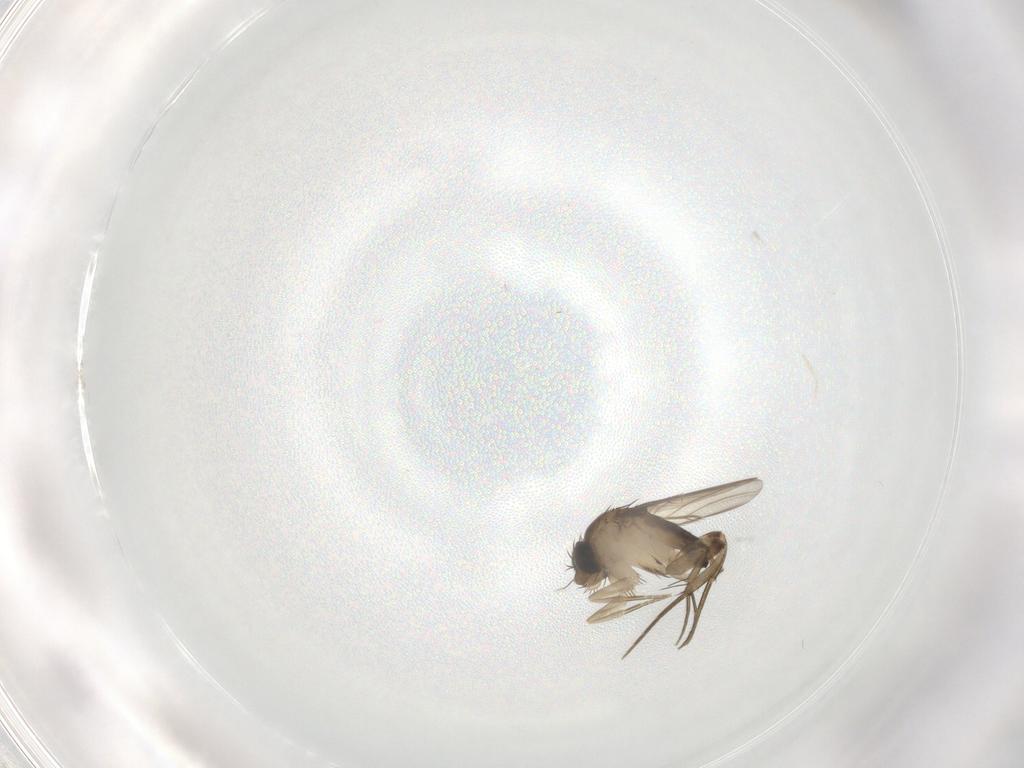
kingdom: Animalia
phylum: Arthropoda
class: Insecta
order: Diptera
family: Phoridae
